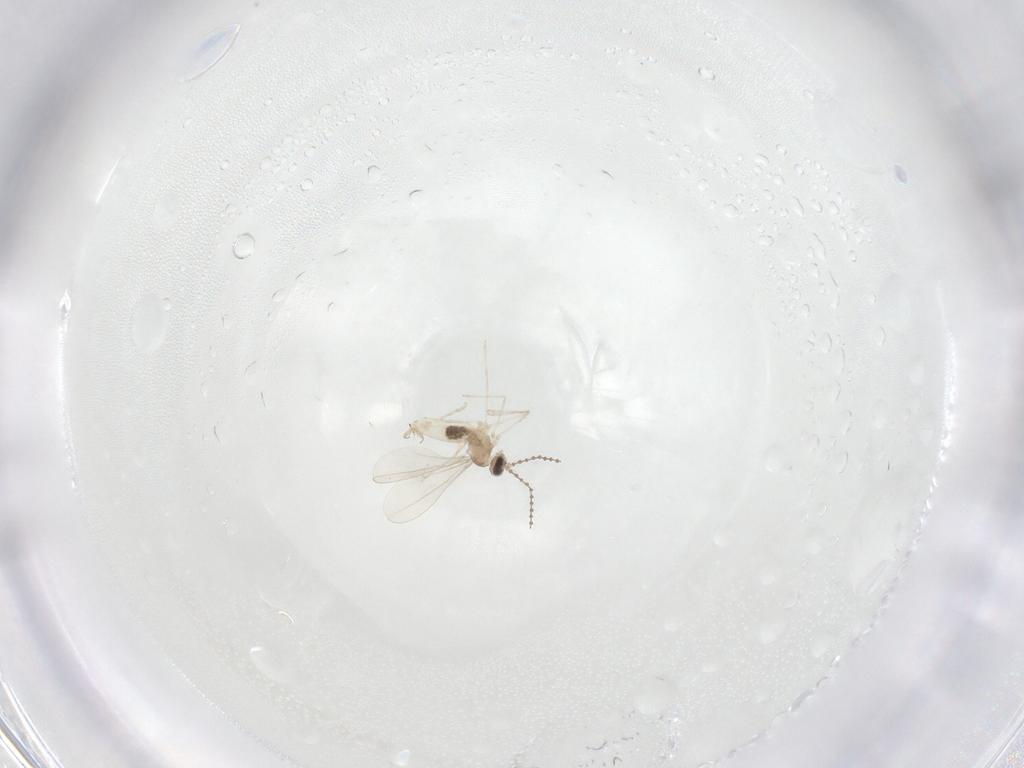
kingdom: Animalia
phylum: Arthropoda
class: Insecta
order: Diptera
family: Cecidomyiidae
